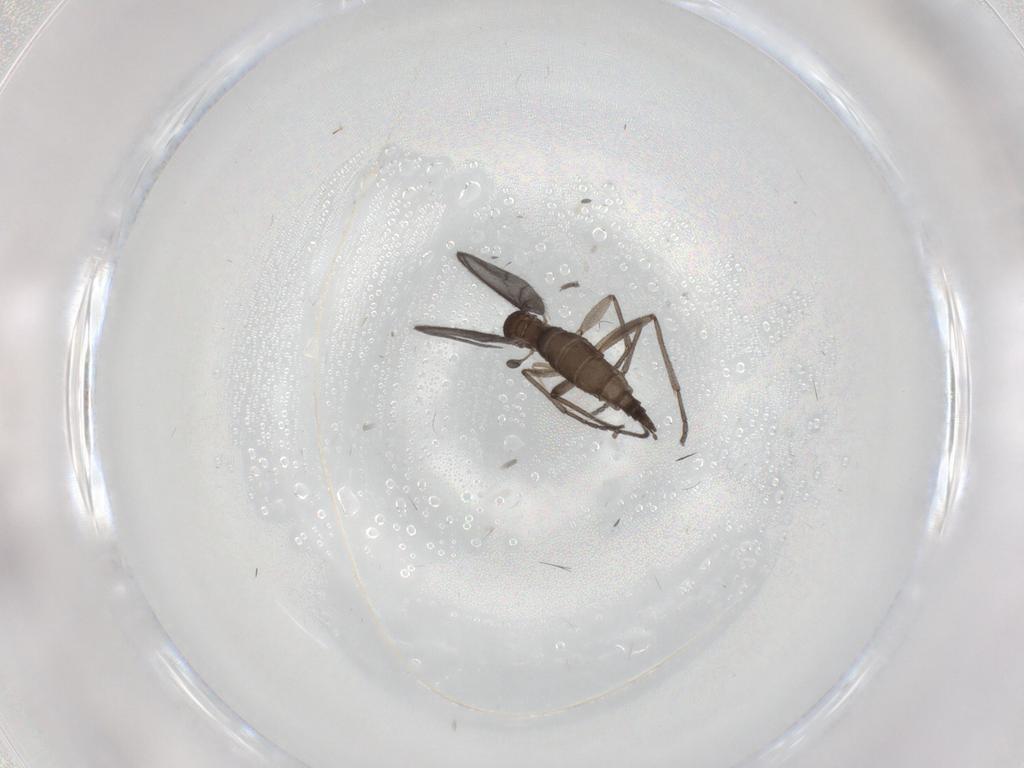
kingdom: Animalia
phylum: Arthropoda
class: Insecta
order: Diptera
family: Sciaridae
